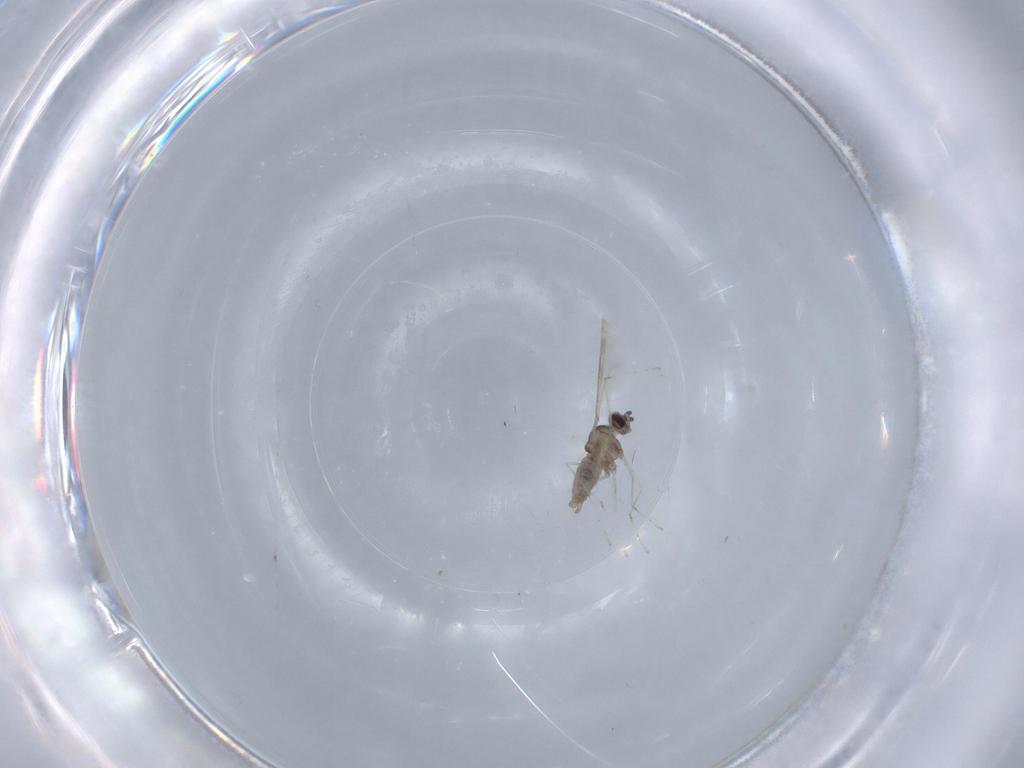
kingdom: Animalia
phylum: Arthropoda
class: Insecta
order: Diptera
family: Cecidomyiidae
